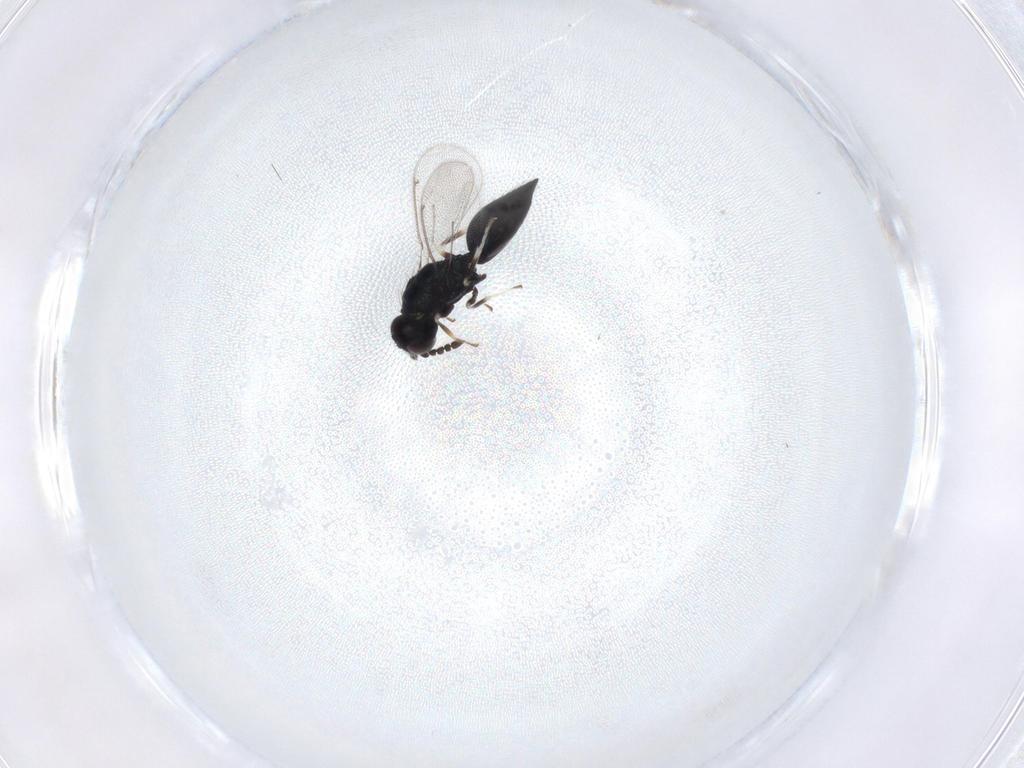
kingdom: Animalia
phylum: Arthropoda
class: Insecta
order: Hymenoptera
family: Eulophidae
